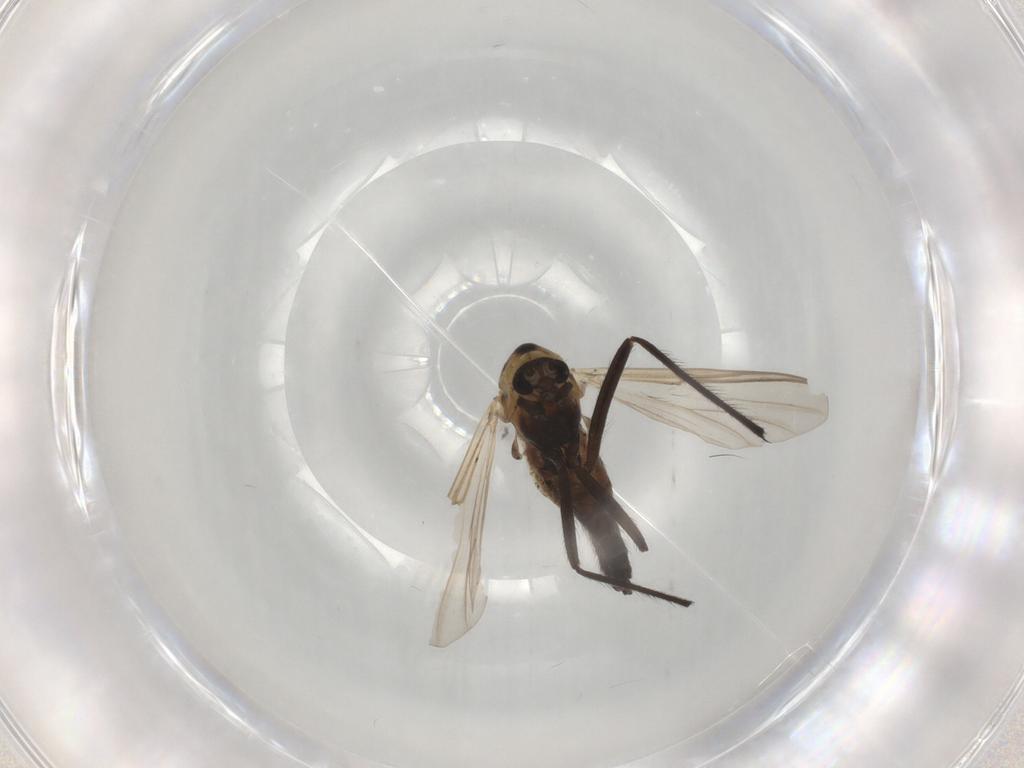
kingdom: Animalia
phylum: Arthropoda
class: Insecta
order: Diptera
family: Chironomidae
